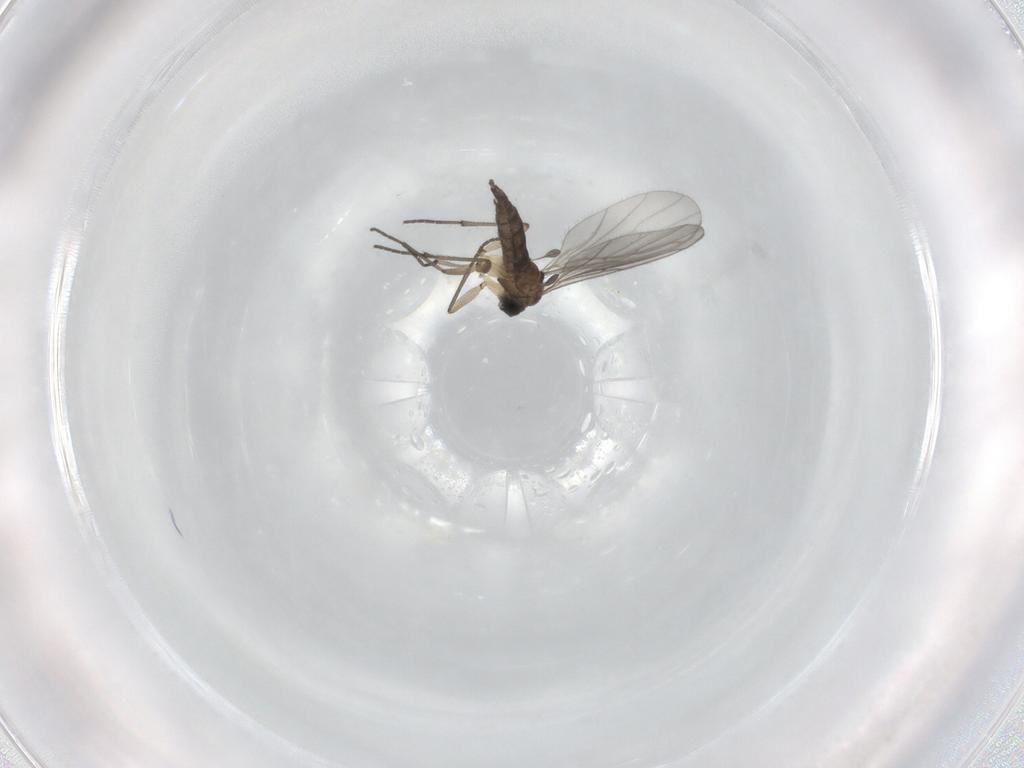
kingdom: Animalia
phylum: Arthropoda
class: Insecta
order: Diptera
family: Sciaridae
